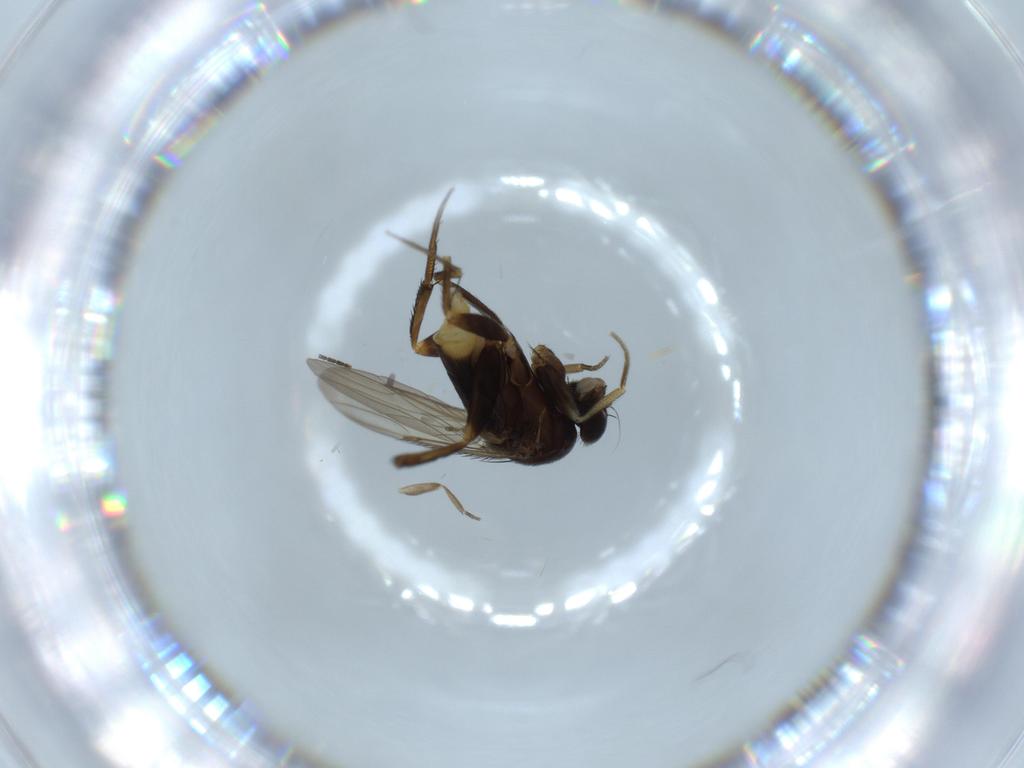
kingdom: Animalia
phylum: Arthropoda
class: Insecta
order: Diptera
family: Phoridae
